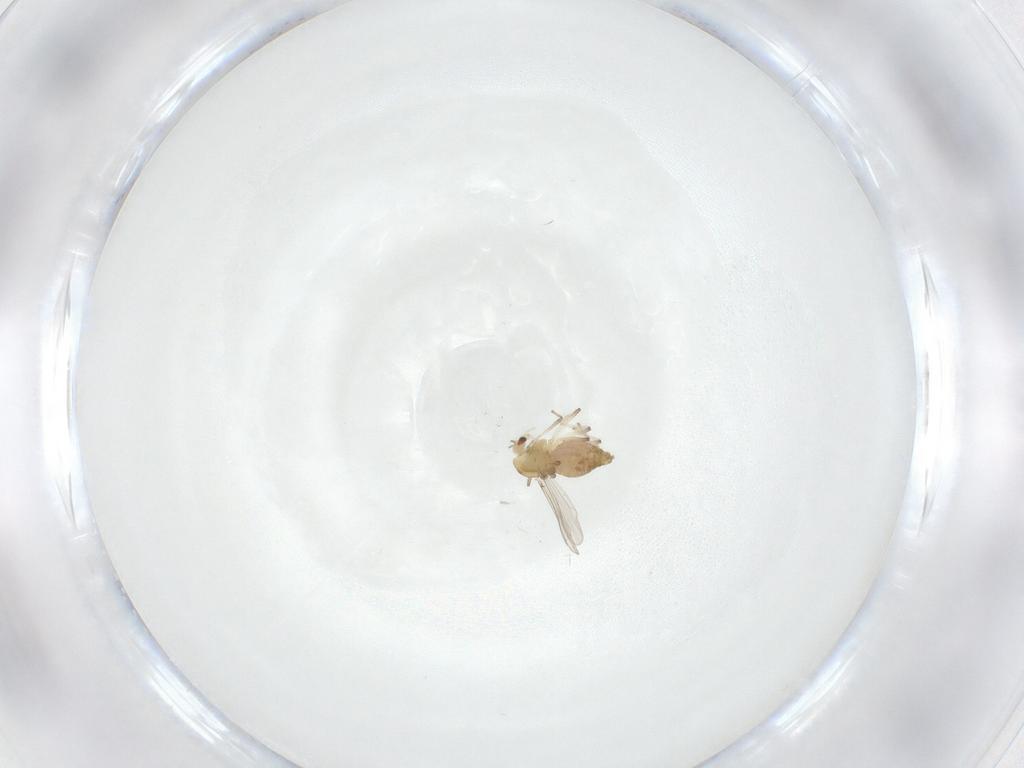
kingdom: Animalia
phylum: Arthropoda
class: Insecta
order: Diptera
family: Chironomidae
